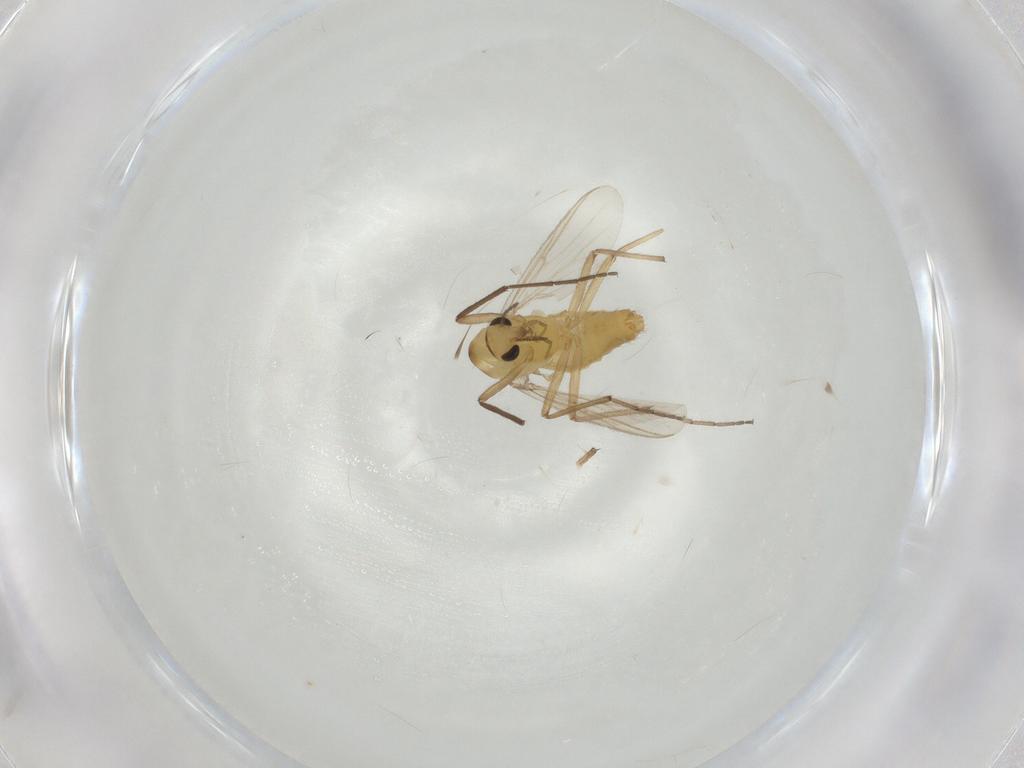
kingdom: Animalia
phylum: Arthropoda
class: Insecta
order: Diptera
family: Chironomidae
